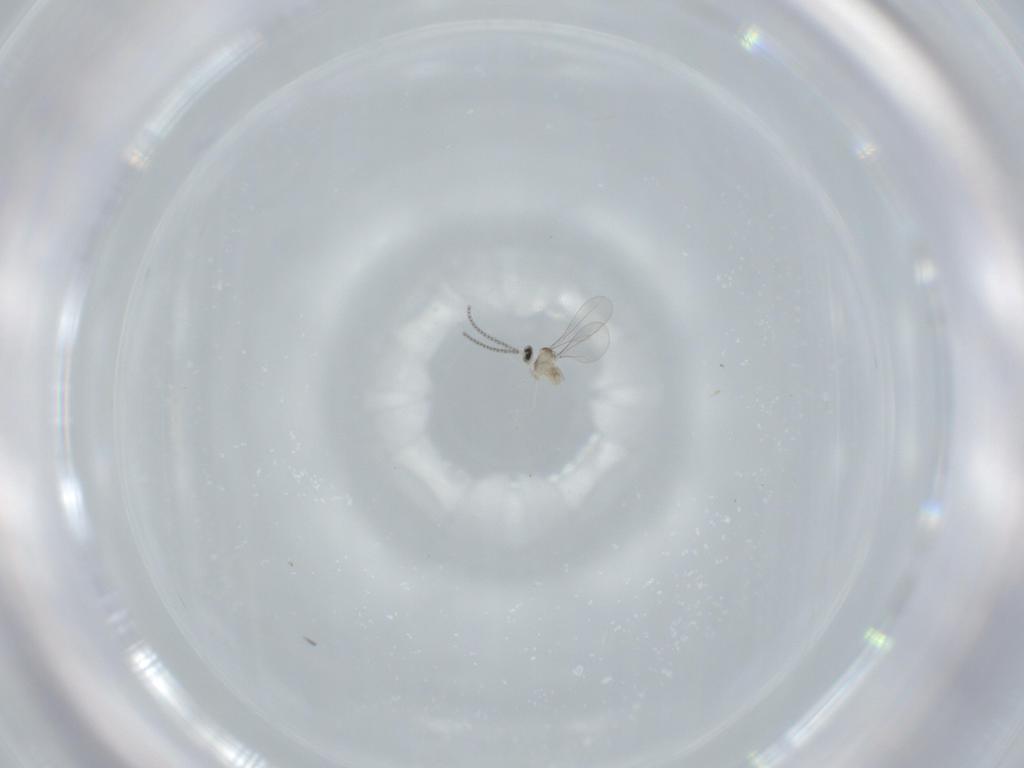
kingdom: Animalia
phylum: Arthropoda
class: Insecta
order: Diptera
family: Cecidomyiidae
